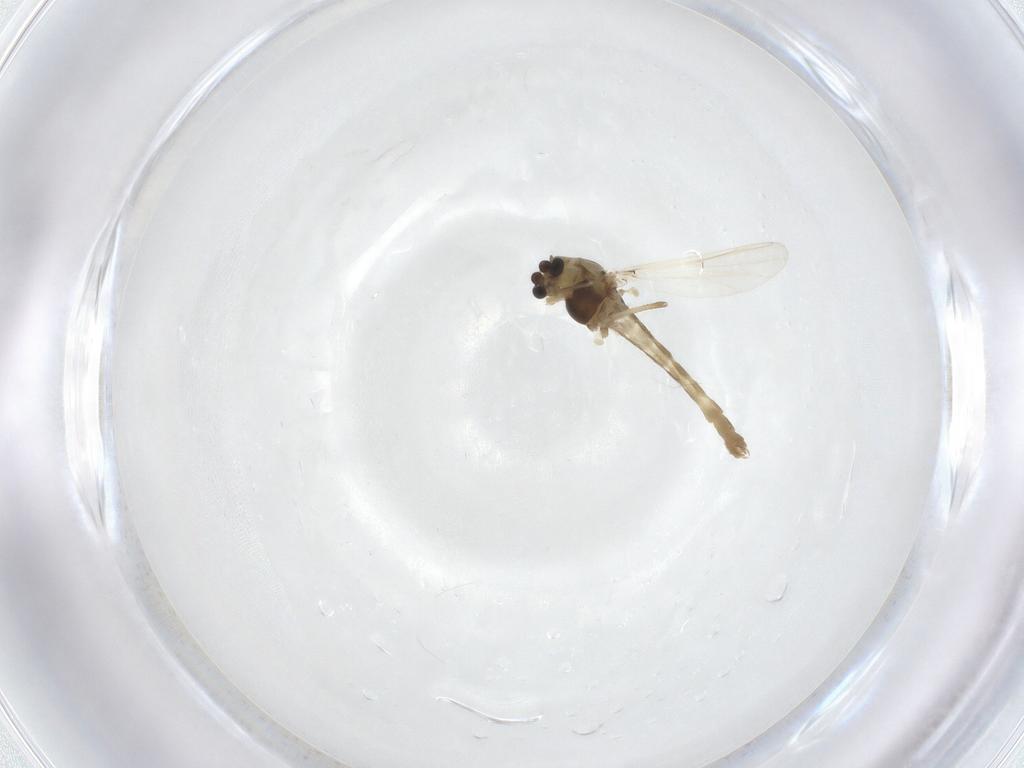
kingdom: Animalia
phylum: Arthropoda
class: Insecta
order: Diptera
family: Chironomidae
